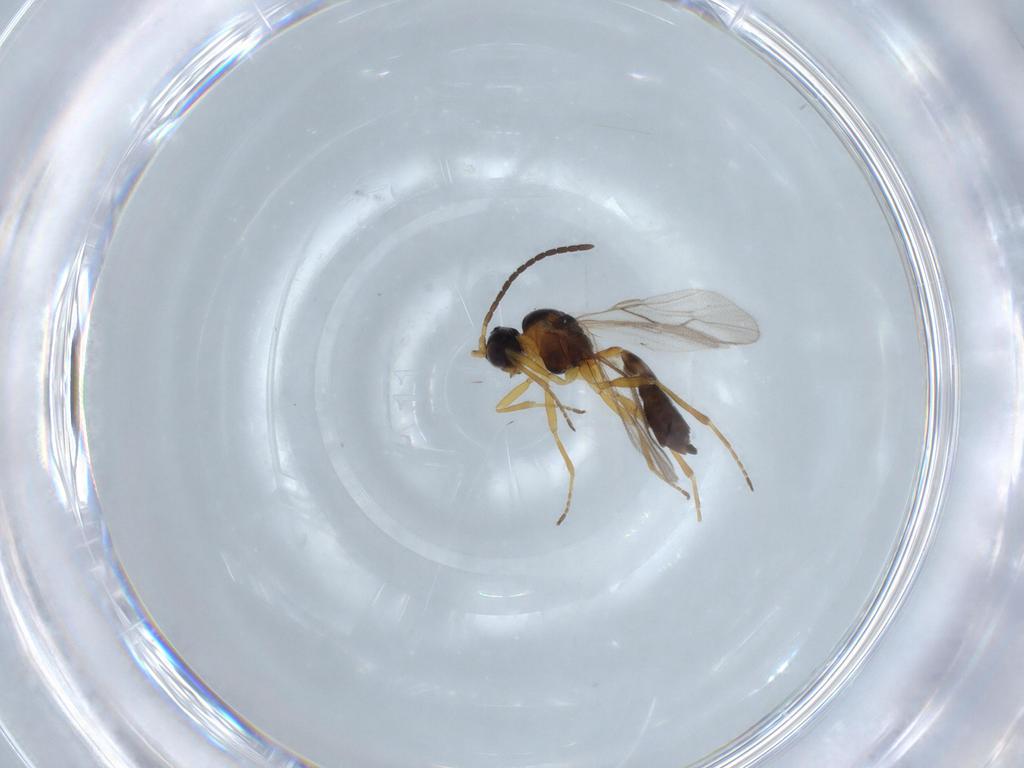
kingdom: Animalia
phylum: Arthropoda
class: Insecta
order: Hymenoptera
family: Braconidae
